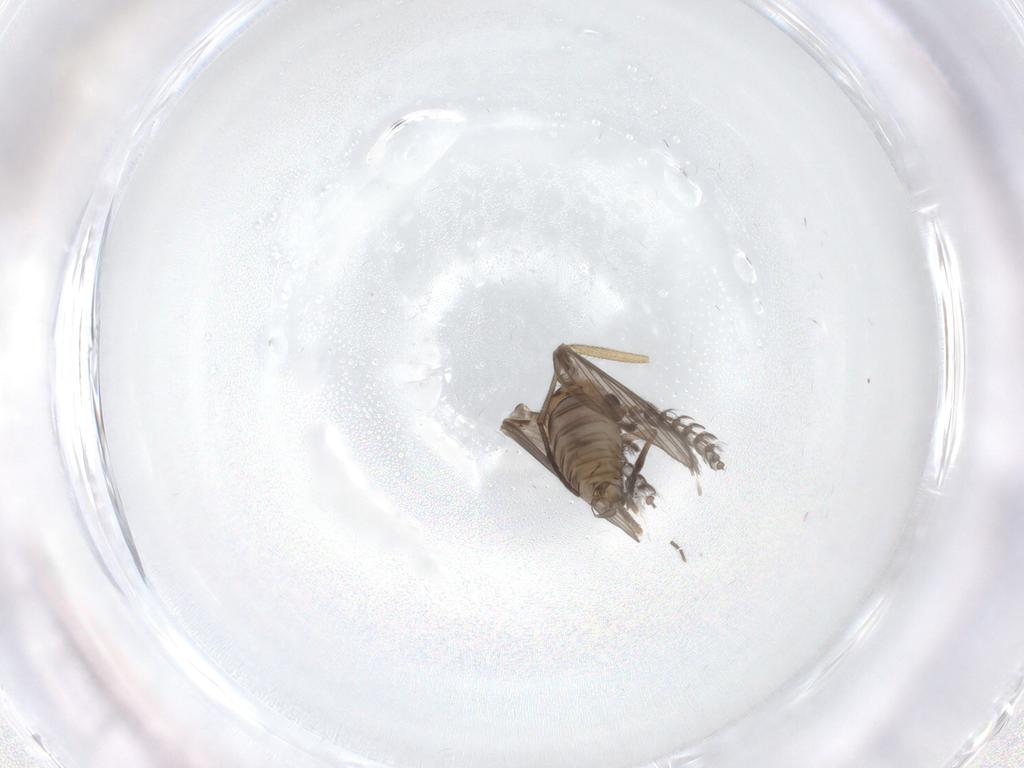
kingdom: Animalia
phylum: Arthropoda
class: Insecta
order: Diptera
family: Psychodidae
